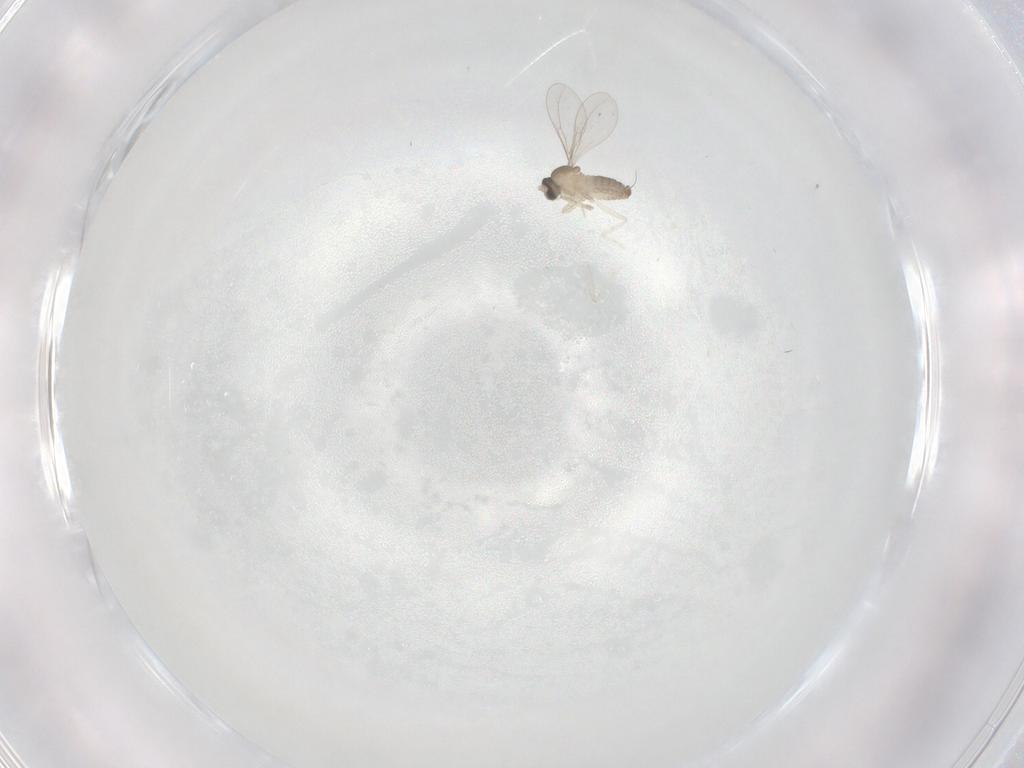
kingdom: Animalia
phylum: Arthropoda
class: Insecta
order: Diptera
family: Cecidomyiidae
